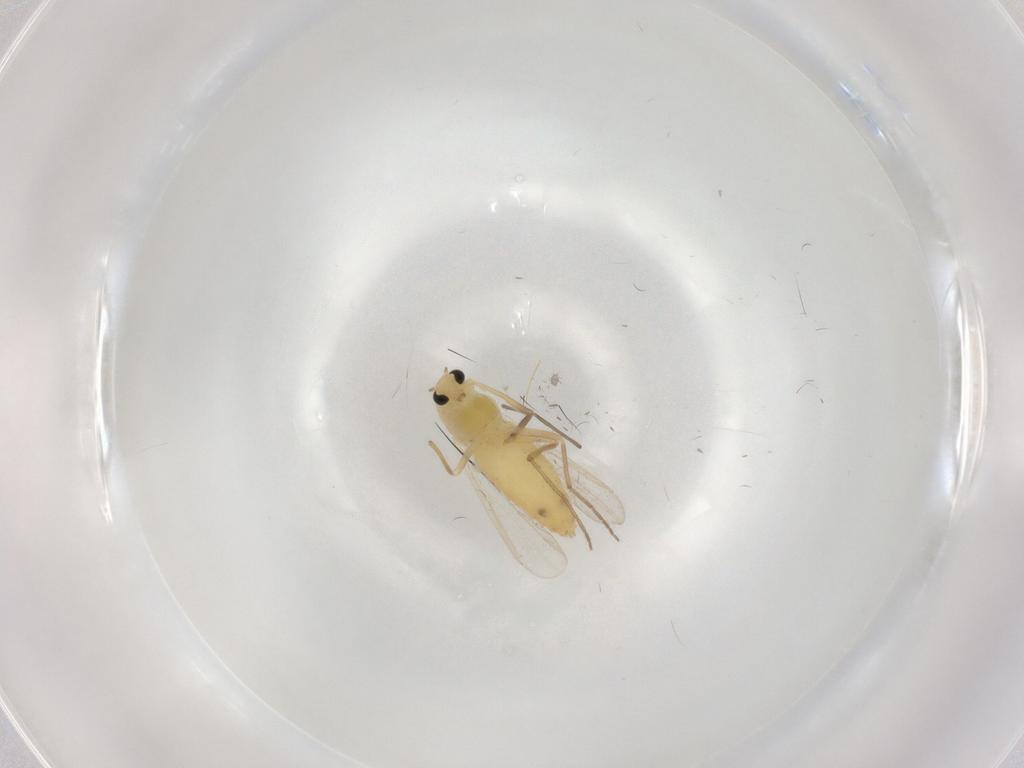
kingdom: Animalia
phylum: Arthropoda
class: Insecta
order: Diptera
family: Chironomidae
